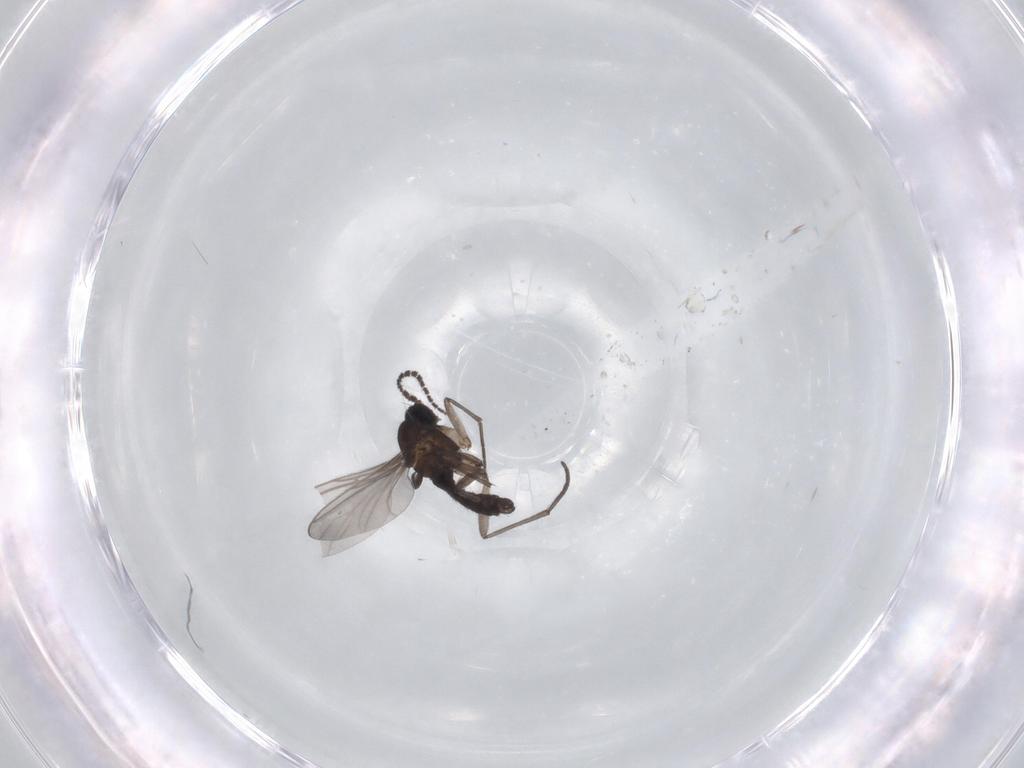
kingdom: Animalia
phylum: Arthropoda
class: Insecta
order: Diptera
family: Sciaridae
